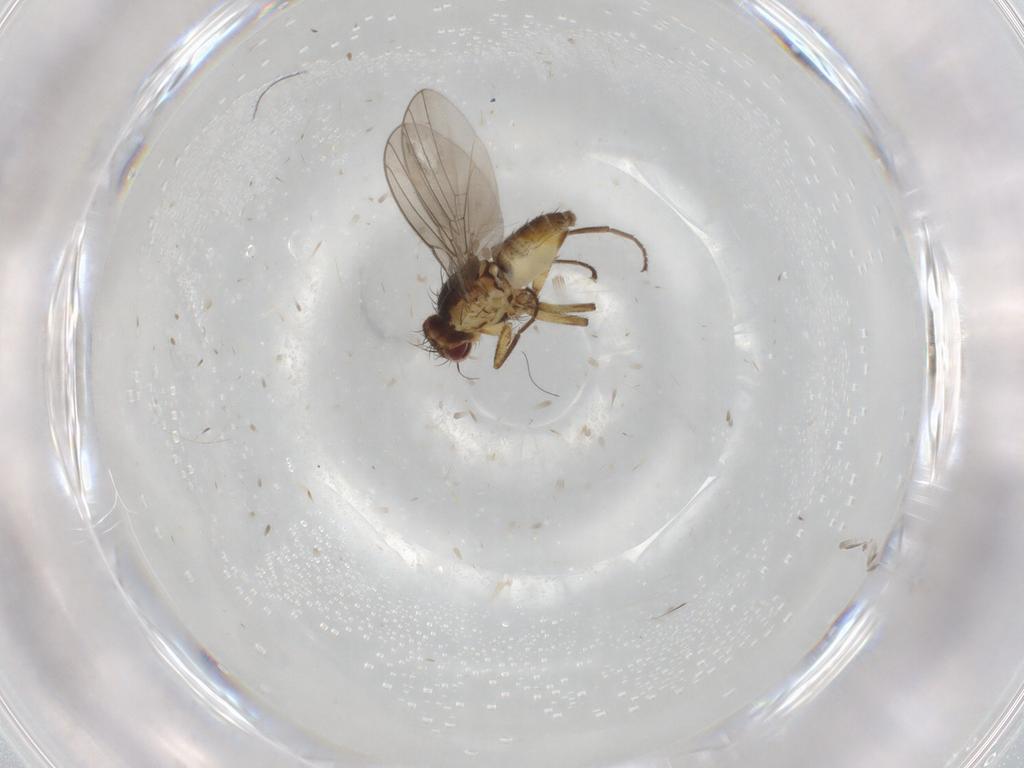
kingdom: Animalia
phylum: Arthropoda
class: Insecta
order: Diptera
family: Agromyzidae
